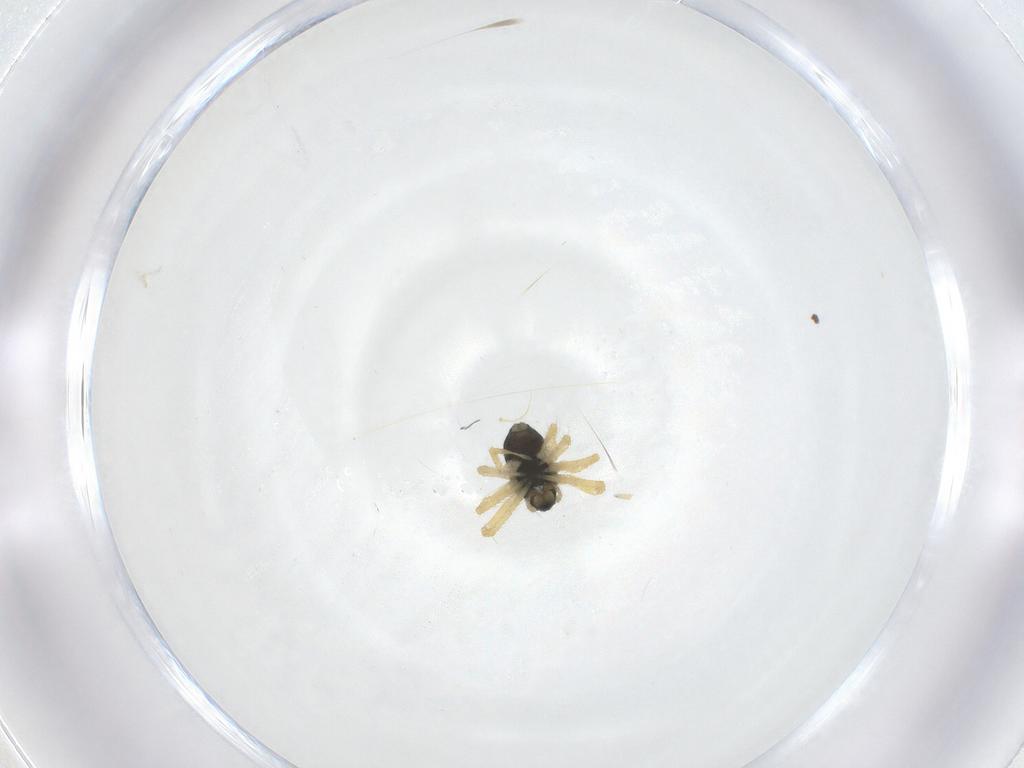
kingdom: Animalia
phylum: Arthropoda
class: Arachnida
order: Araneae
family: Linyphiidae
